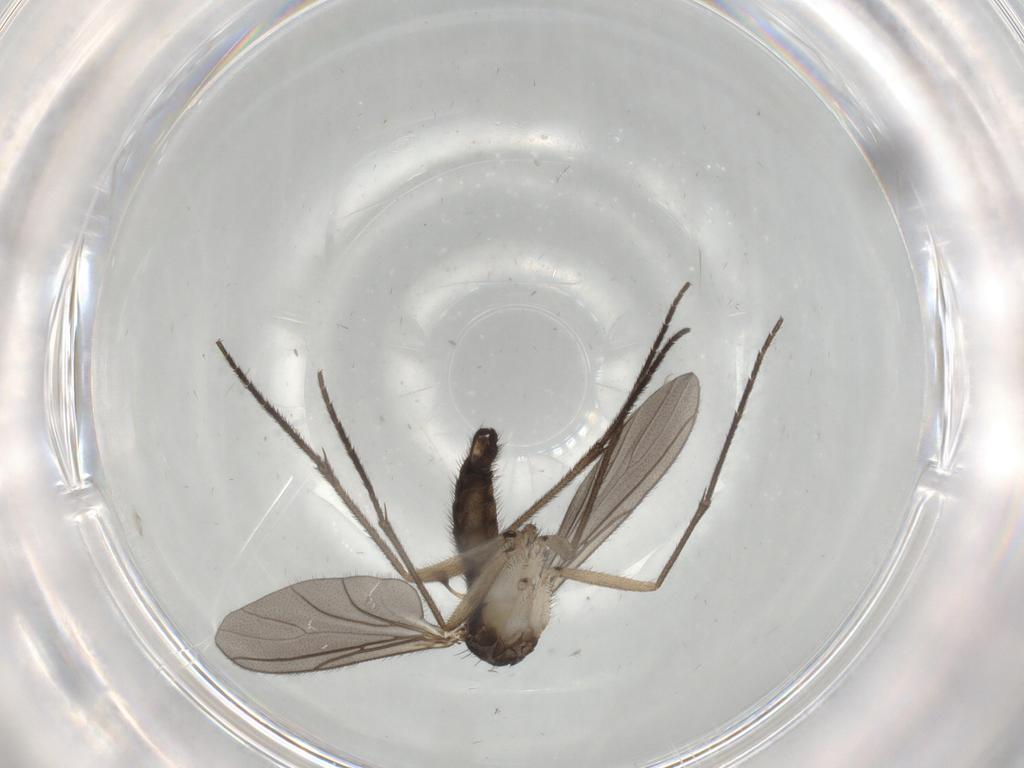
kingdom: Animalia
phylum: Arthropoda
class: Insecta
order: Diptera
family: Sciaridae
